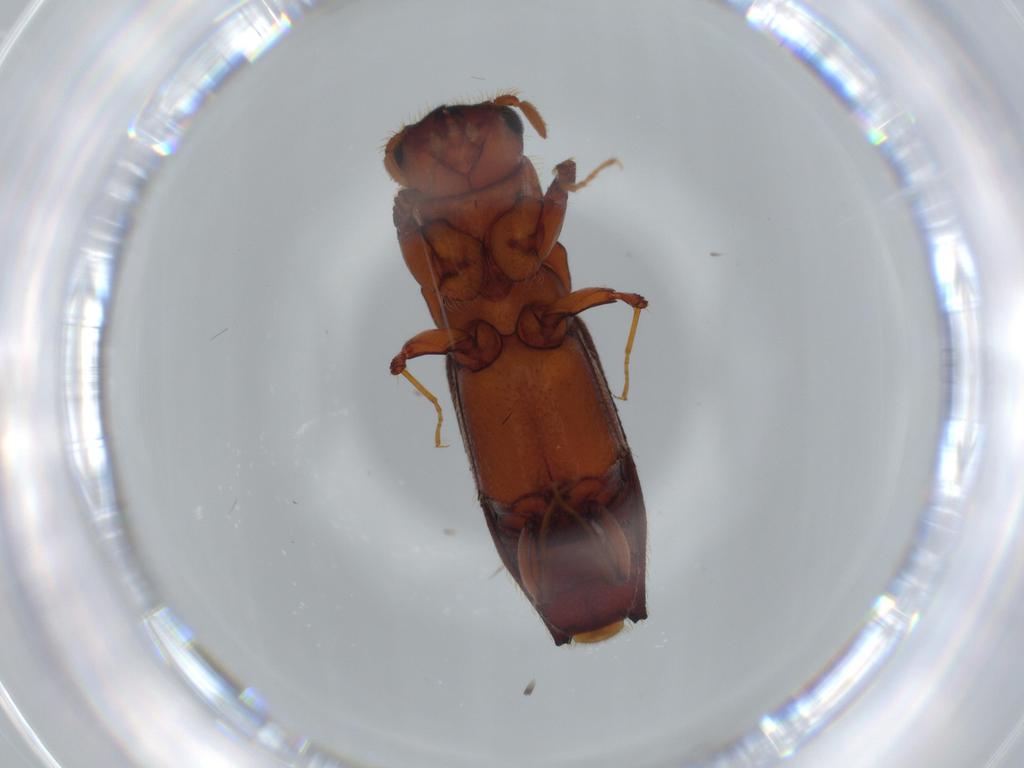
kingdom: Animalia
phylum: Arthropoda
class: Insecta
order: Coleoptera
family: Curculionidae
